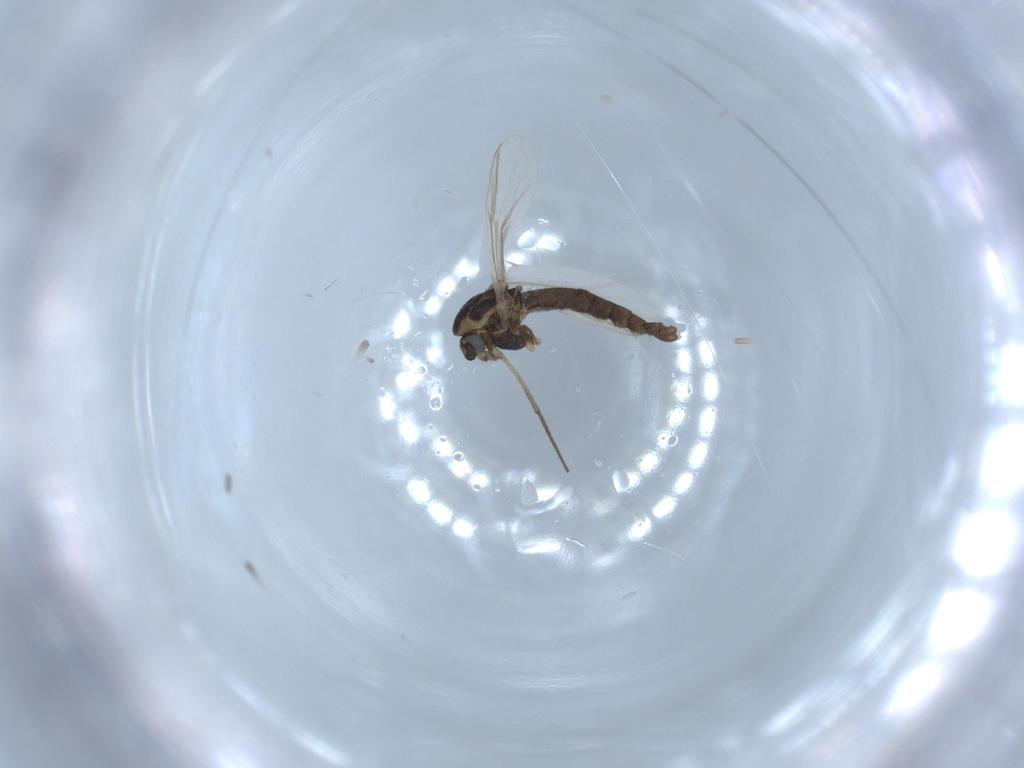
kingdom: Animalia
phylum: Arthropoda
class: Insecta
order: Diptera
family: Chironomidae
